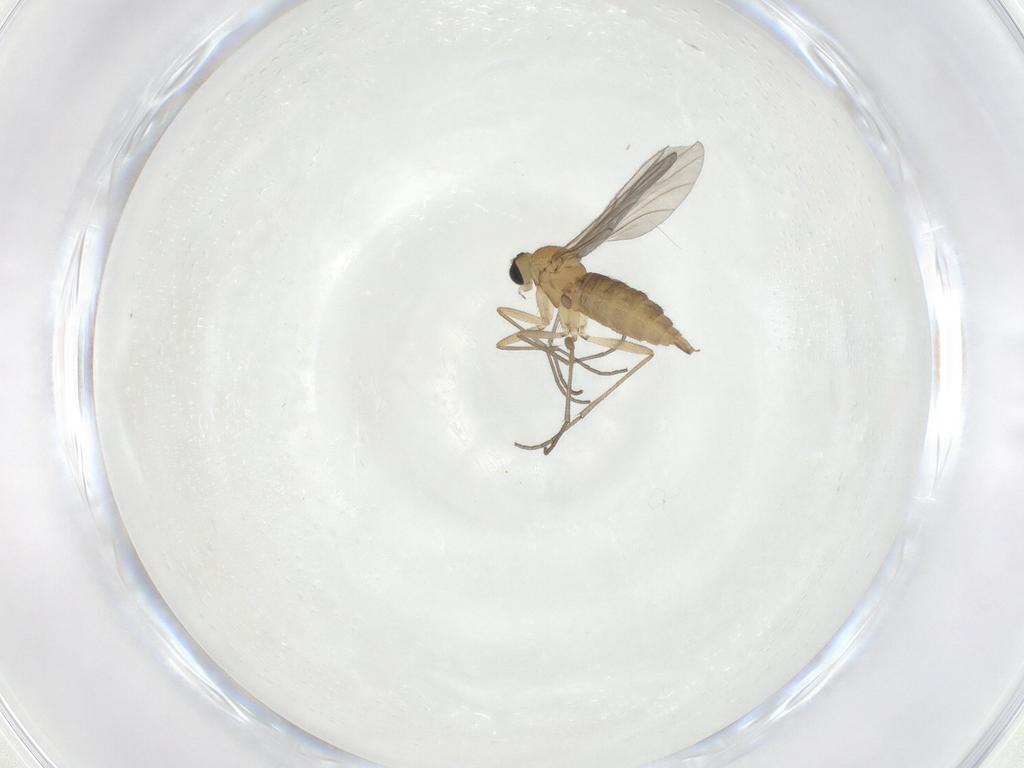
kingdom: Animalia
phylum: Arthropoda
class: Insecta
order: Diptera
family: Sciaridae
